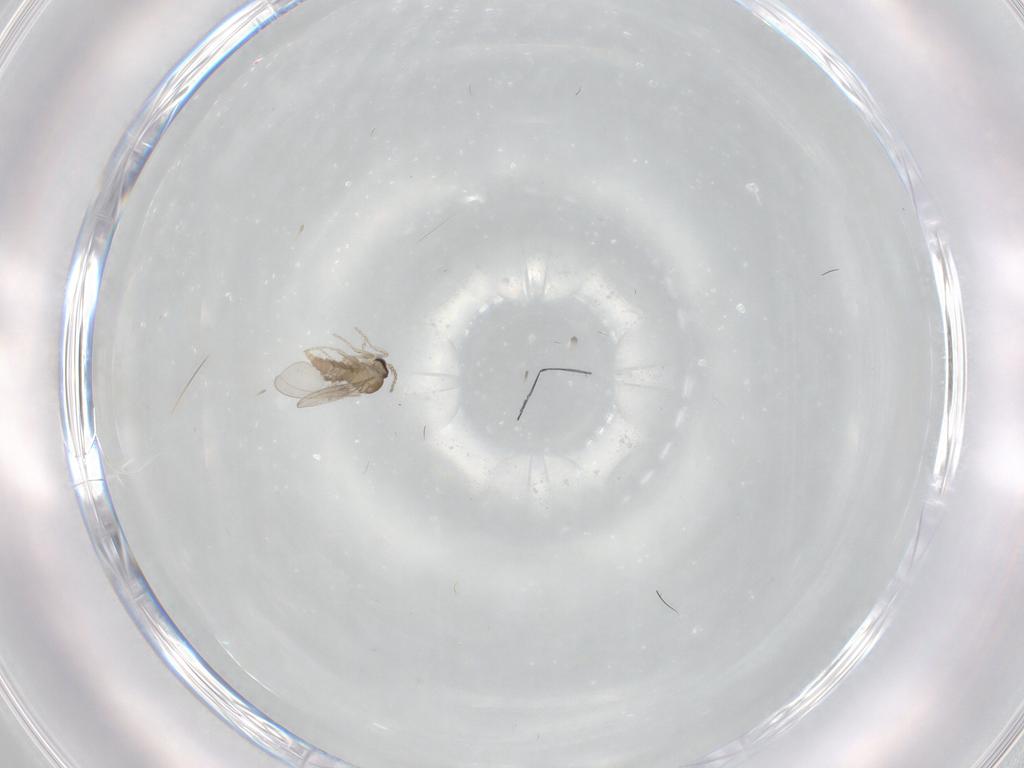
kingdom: Animalia
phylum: Arthropoda
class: Insecta
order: Diptera
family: Cecidomyiidae
